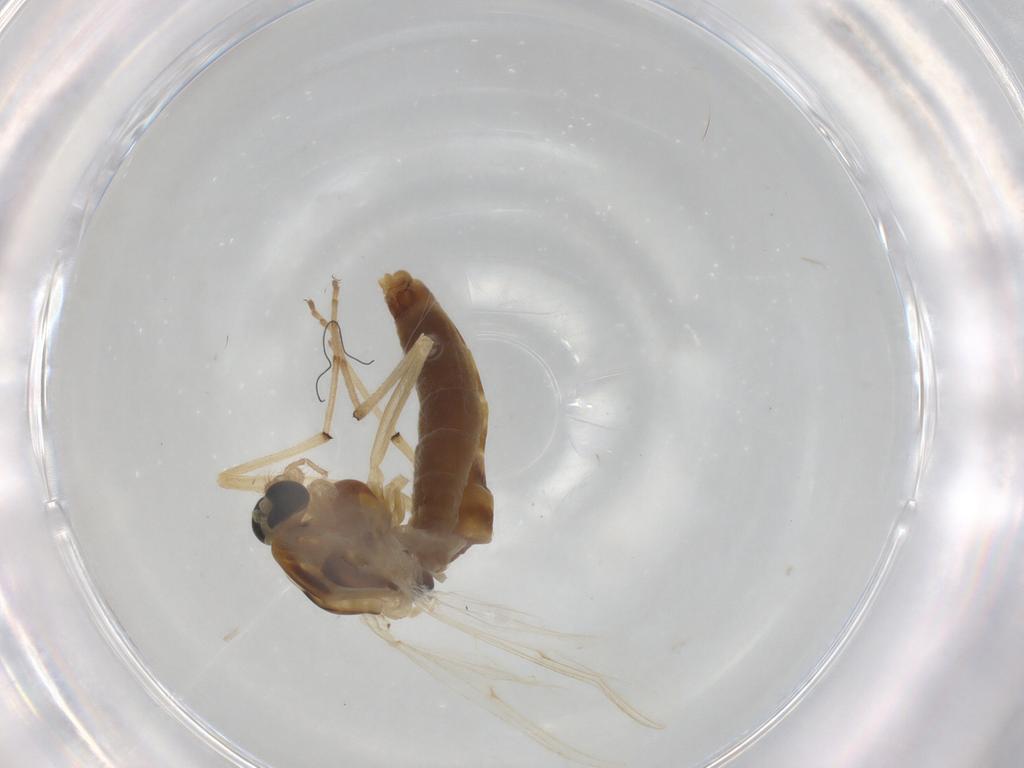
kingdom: Animalia
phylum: Arthropoda
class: Insecta
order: Diptera
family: Chironomidae
